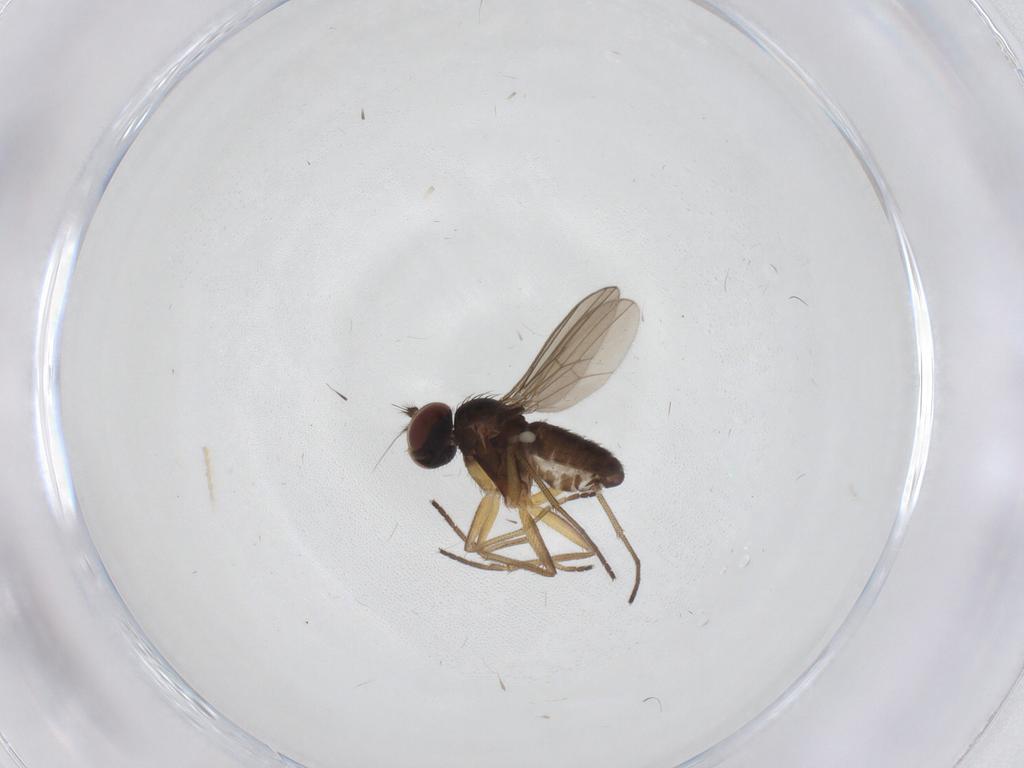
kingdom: Animalia
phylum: Arthropoda
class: Insecta
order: Diptera
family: Dolichopodidae
